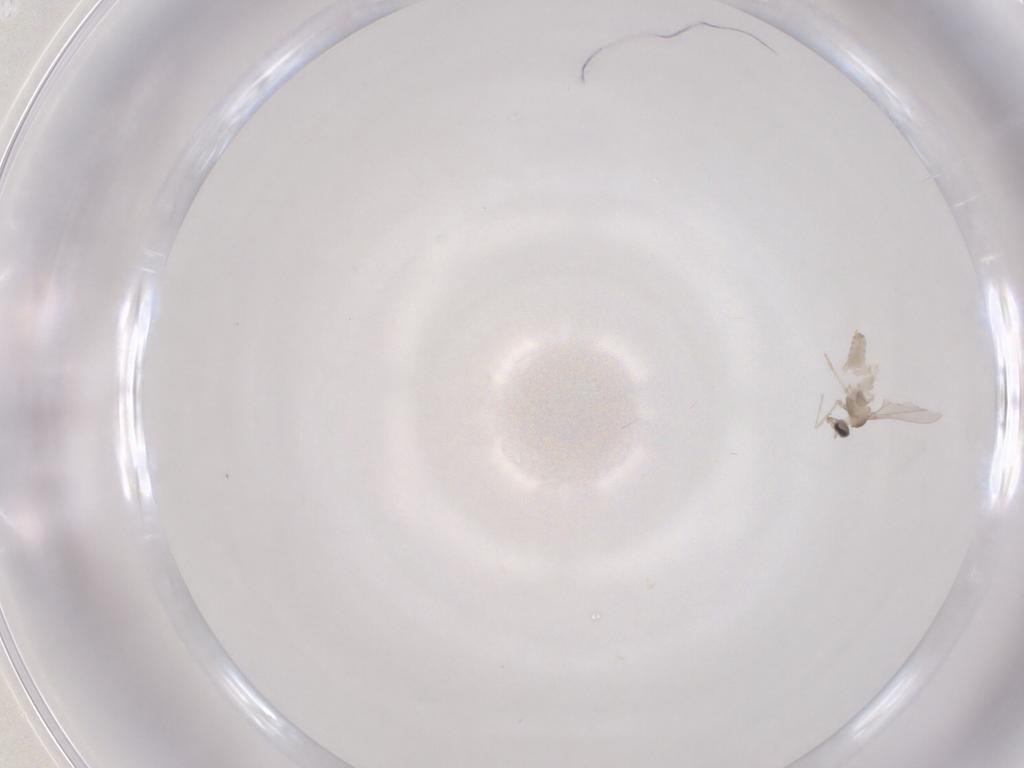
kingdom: Animalia
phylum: Arthropoda
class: Insecta
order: Diptera
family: Cecidomyiidae
